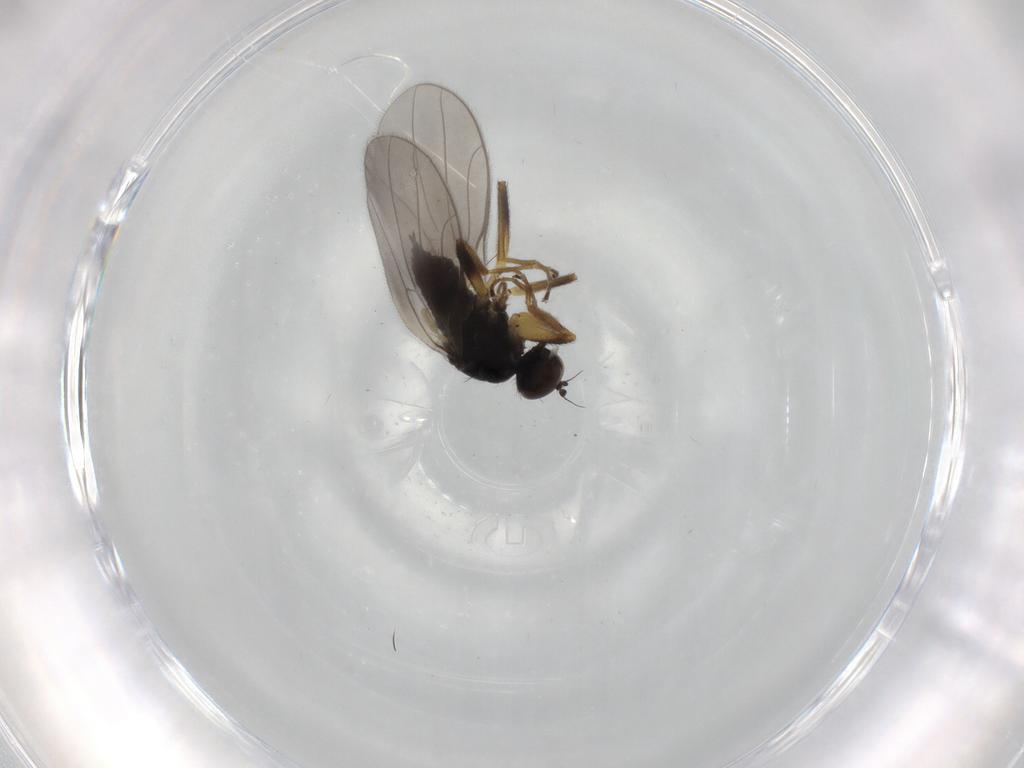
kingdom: Animalia
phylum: Arthropoda
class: Insecta
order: Diptera
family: Hybotidae
